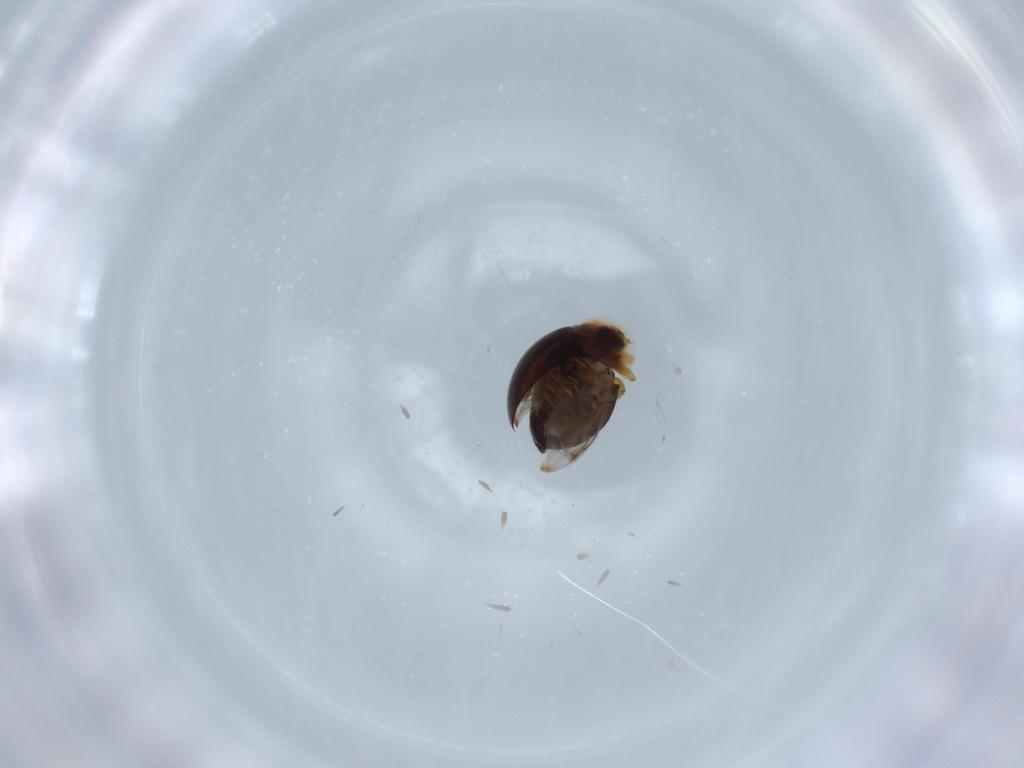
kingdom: Animalia
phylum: Arthropoda
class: Insecta
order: Coleoptera
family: Corylophidae
